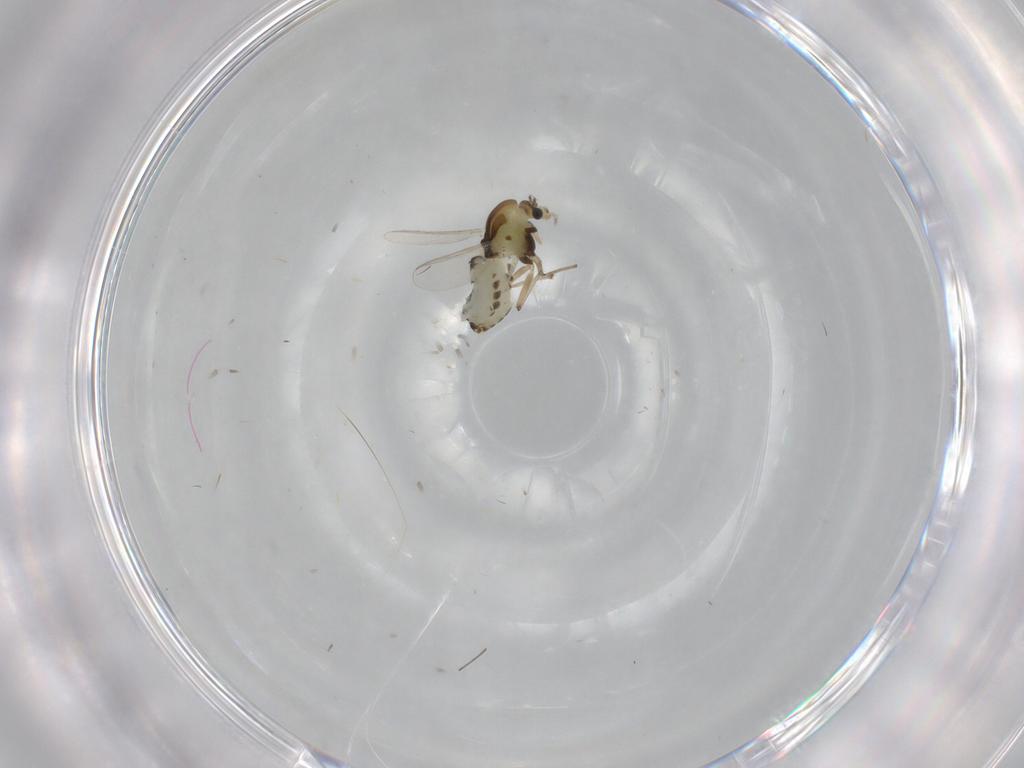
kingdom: Animalia
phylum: Arthropoda
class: Insecta
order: Diptera
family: Chironomidae
